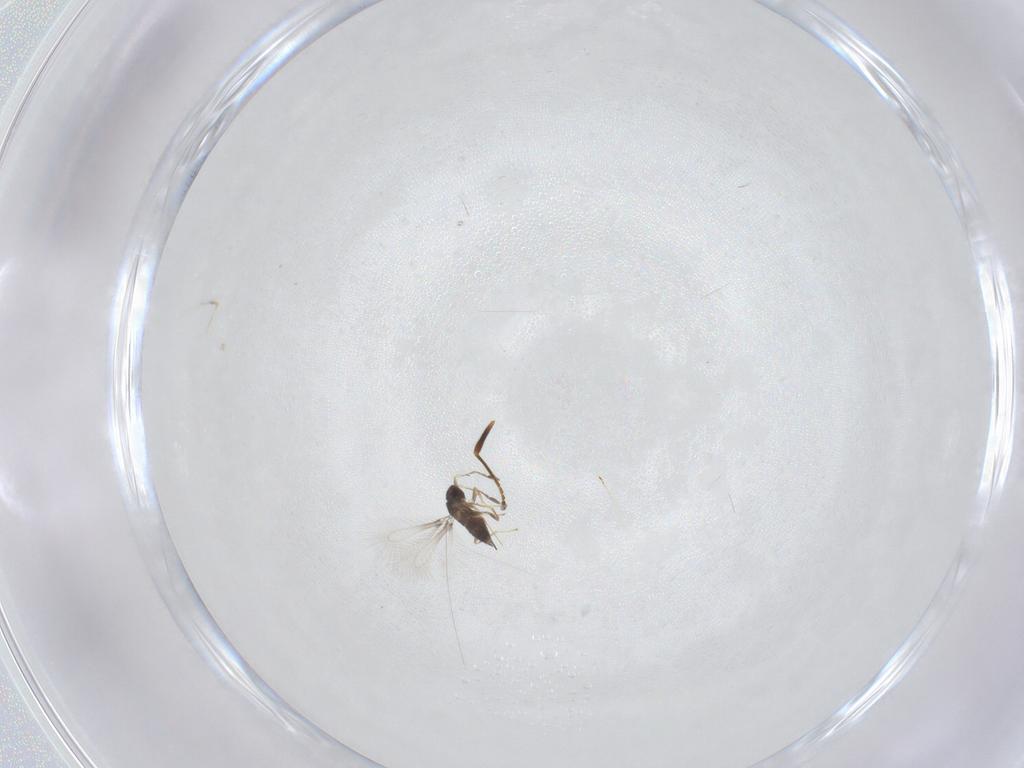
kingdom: Animalia
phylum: Arthropoda
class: Insecta
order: Hymenoptera
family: Mymaridae
